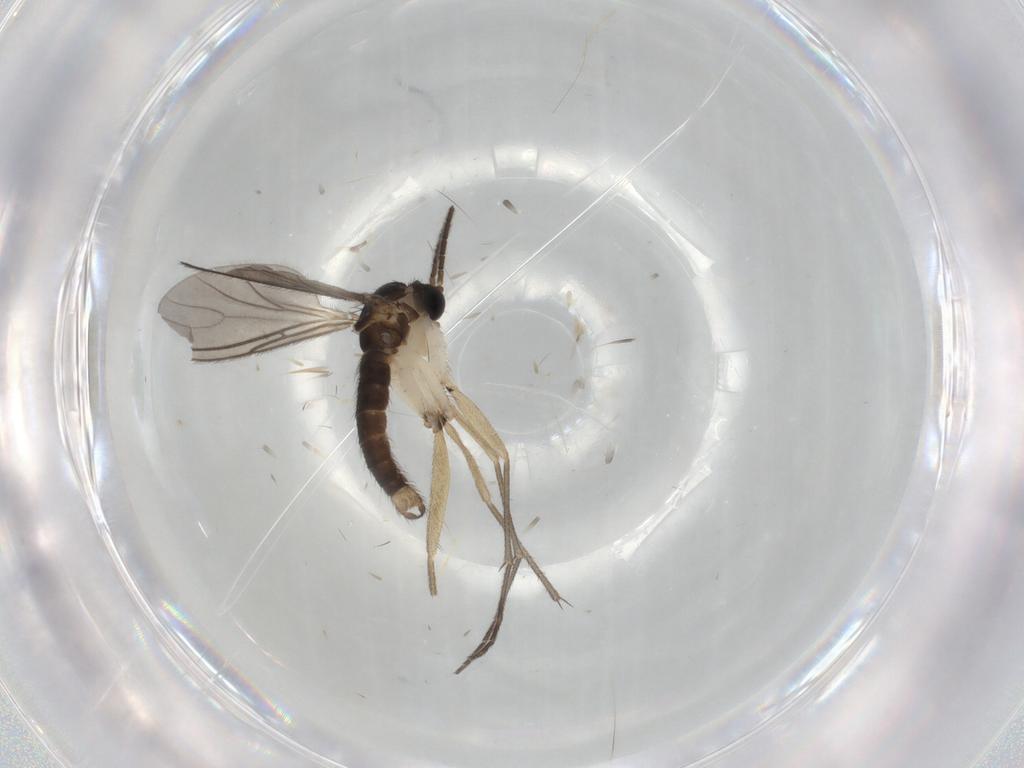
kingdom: Animalia
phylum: Arthropoda
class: Insecta
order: Diptera
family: Sciaridae
